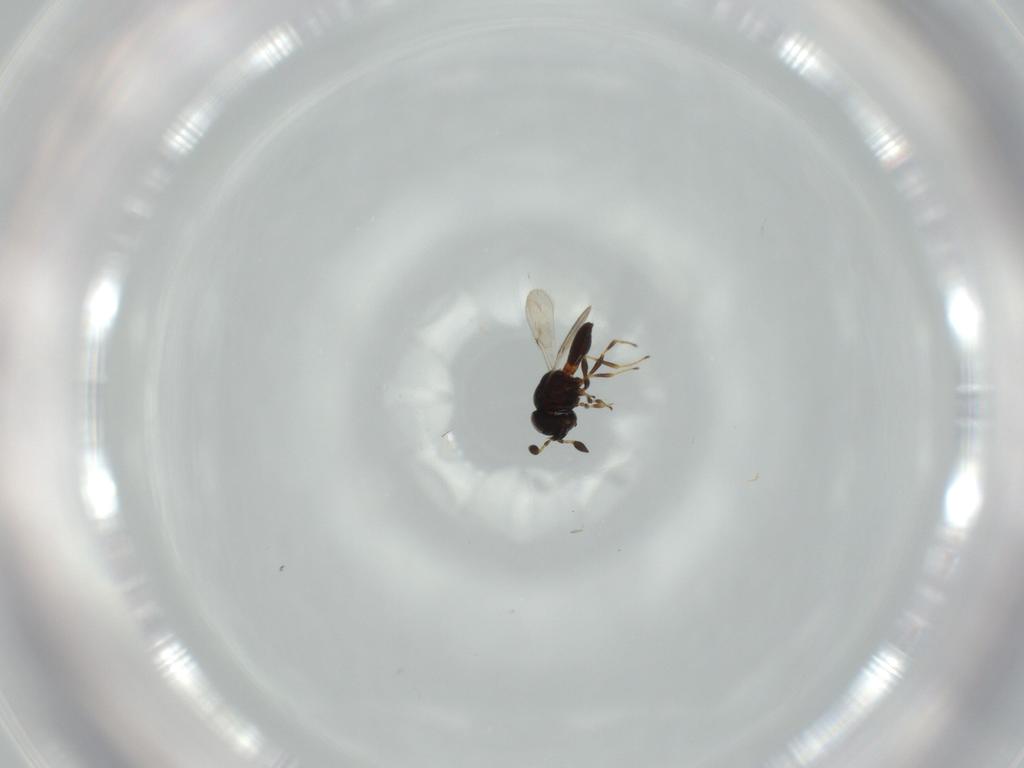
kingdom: Animalia
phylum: Arthropoda
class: Insecta
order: Hymenoptera
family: Scelionidae
